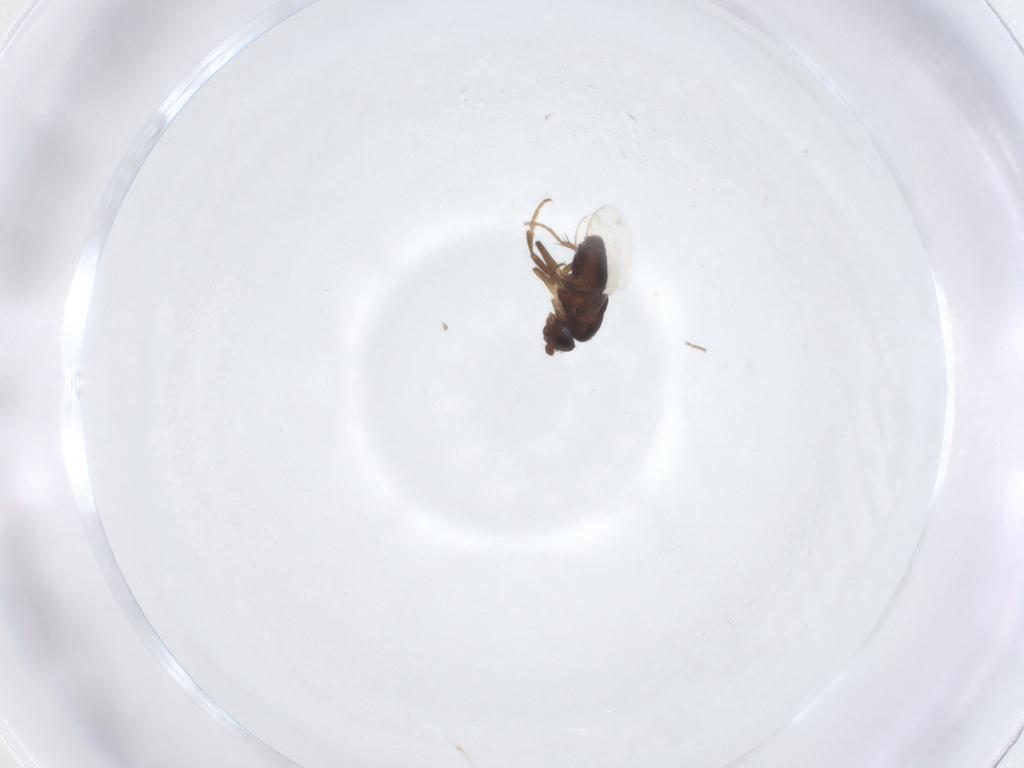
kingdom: Animalia
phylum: Arthropoda
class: Insecta
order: Diptera
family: Sphaeroceridae
